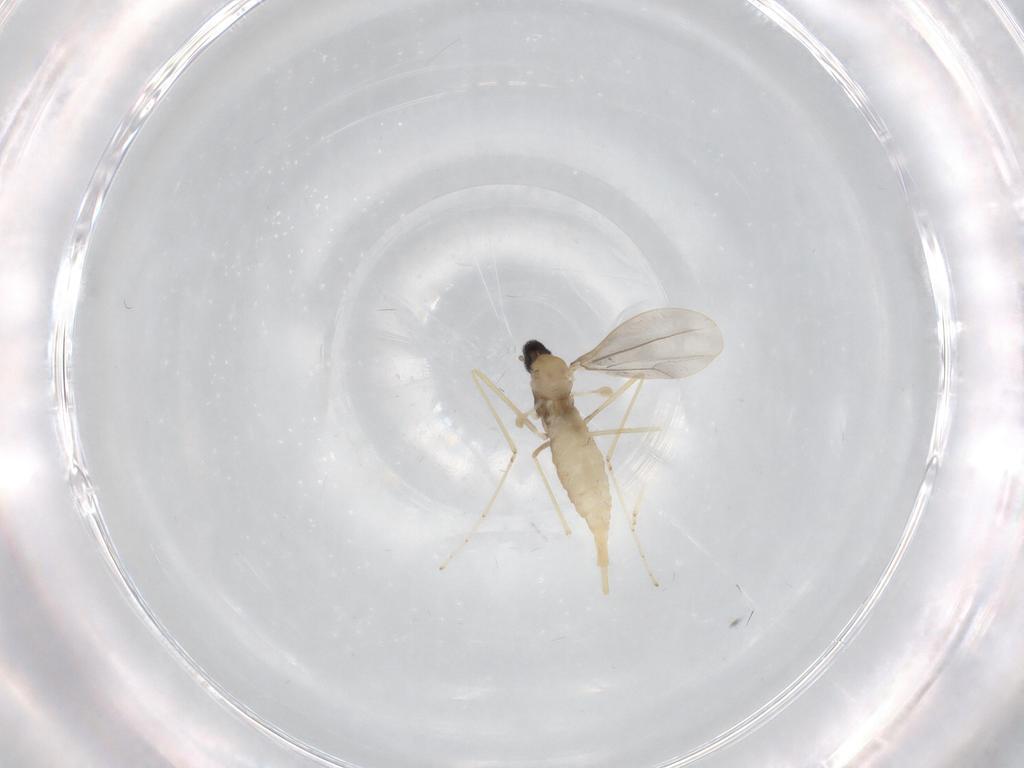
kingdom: Animalia
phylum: Arthropoda
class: Insecta
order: Diptera
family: Cecidomyiidae
